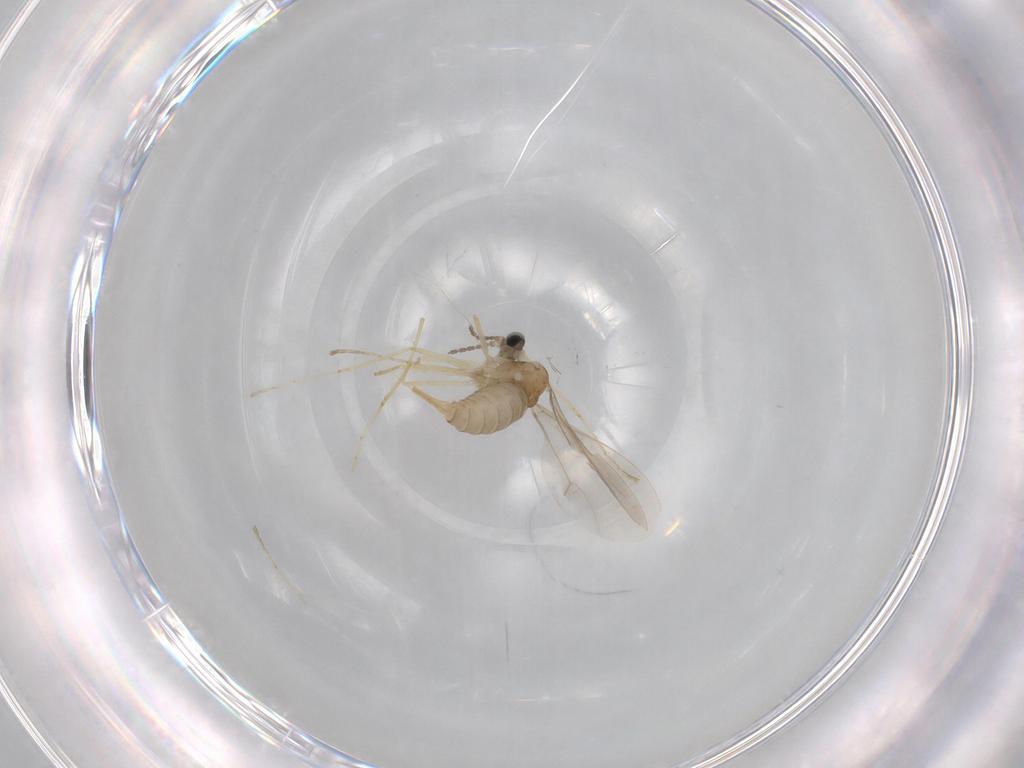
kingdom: Animalia
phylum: Arthropoda
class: Insecta
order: Diptera
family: Cecidomyiidae
